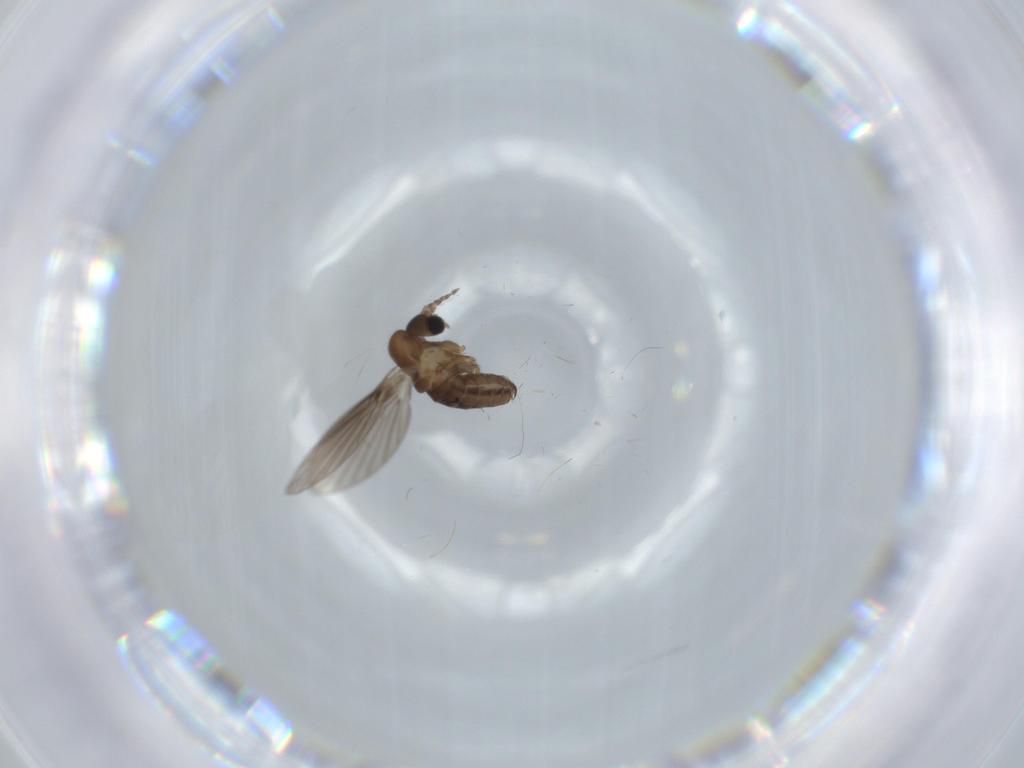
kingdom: Animalia
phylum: Arthropoda
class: Insecta
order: Diptera
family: Psychodidae
